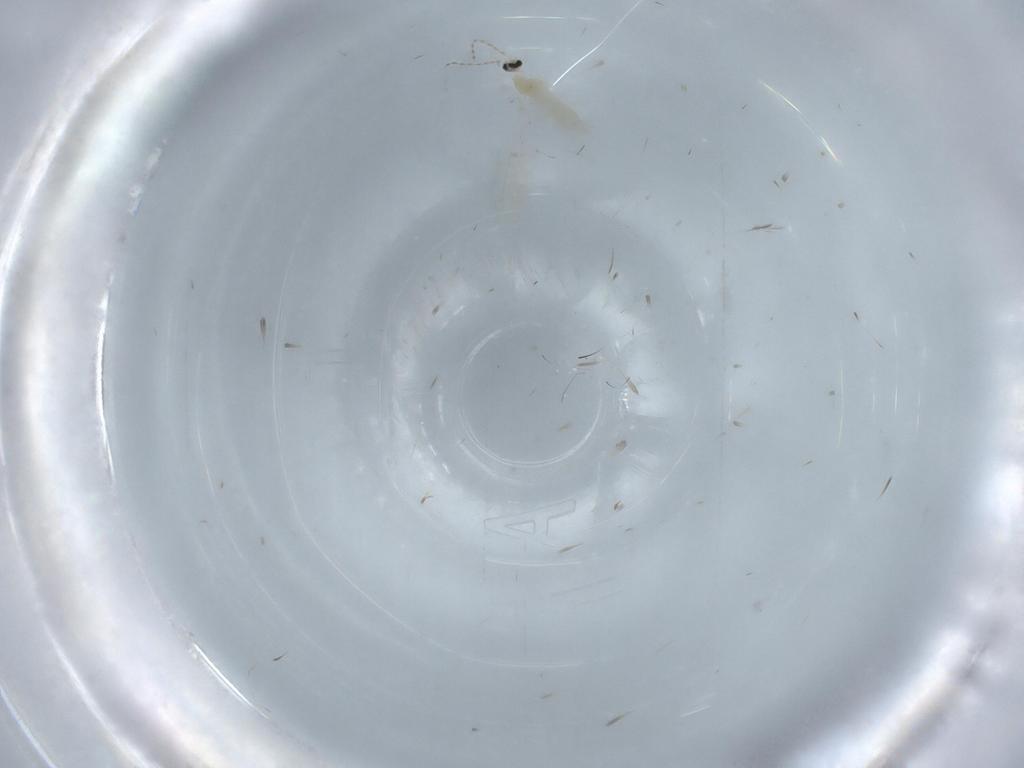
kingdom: Animalia
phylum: Arthropoda
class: Insecta
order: Diptera
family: Cecidomyiidae
